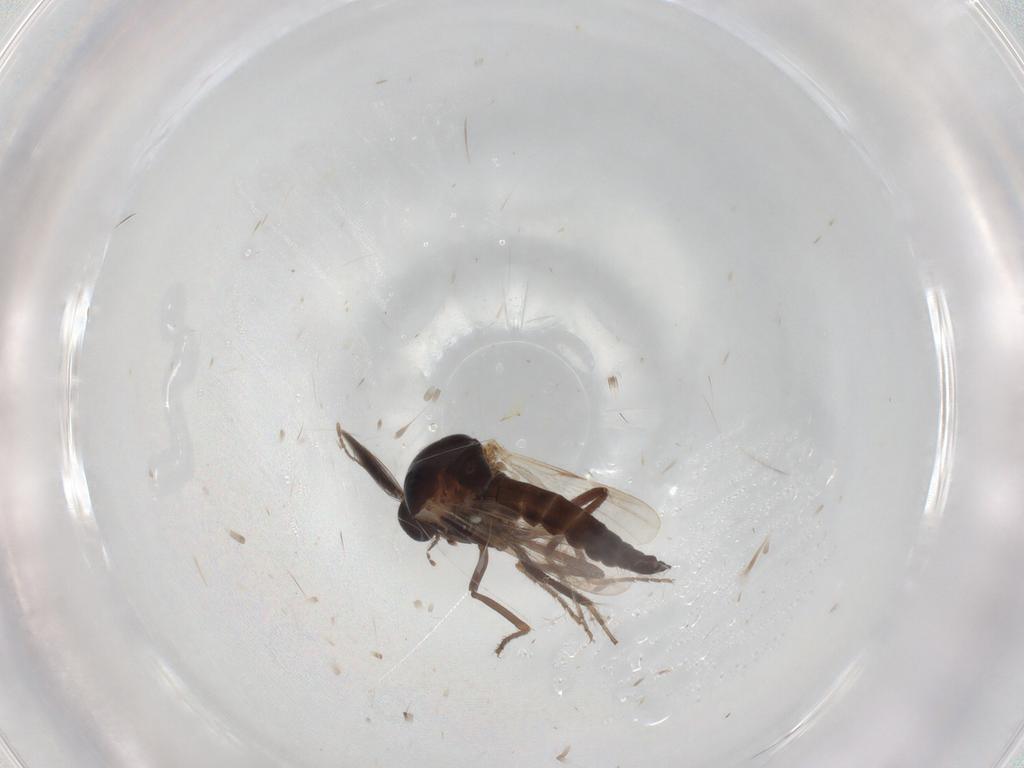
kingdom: Animalia
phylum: Arthropoda
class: Insecta
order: Diptera
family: Ceratopogonidae
